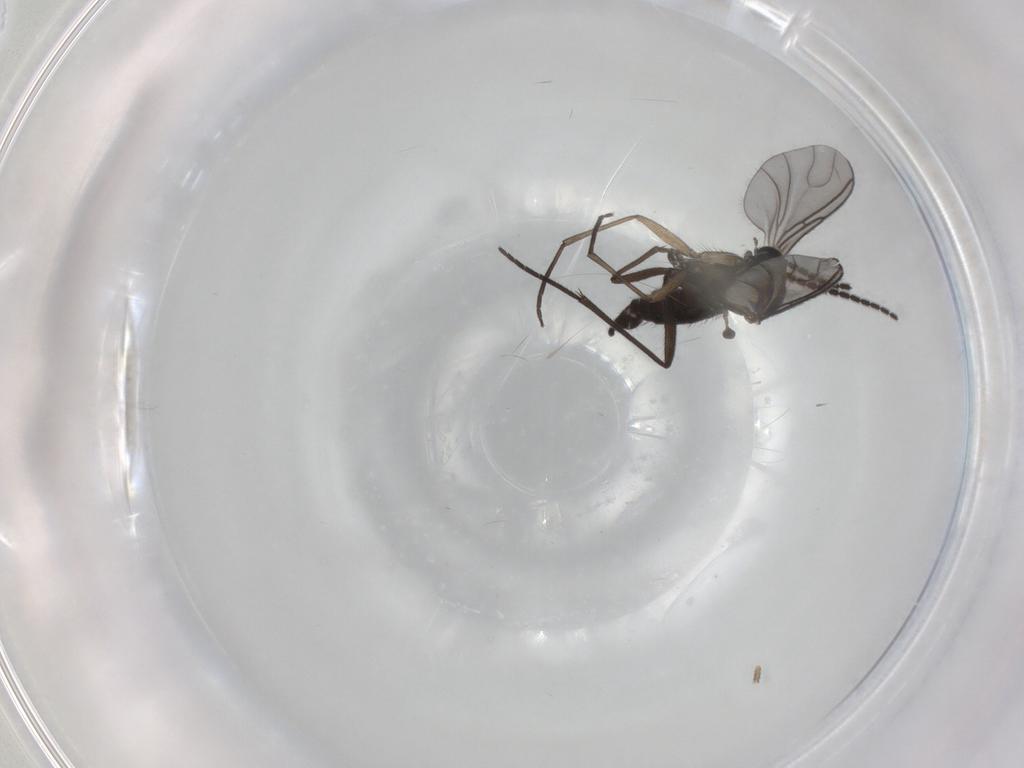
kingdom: Animalia
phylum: Arthropoda
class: Insecta
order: Diptera
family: Sciaridae
